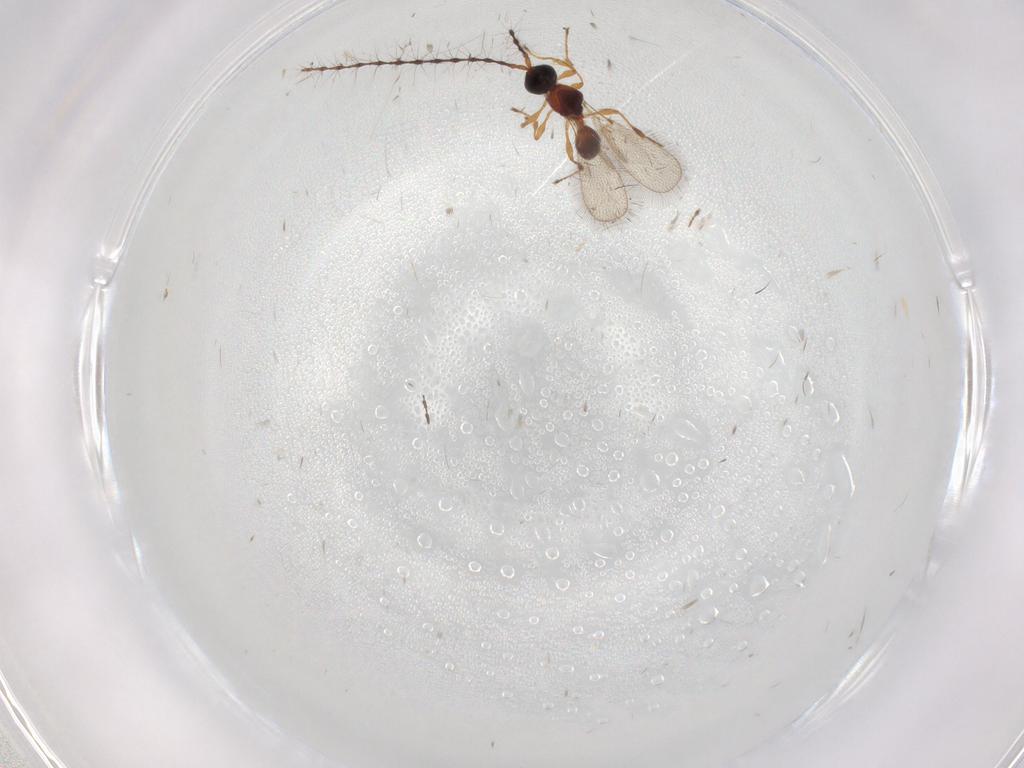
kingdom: Animalia
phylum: Arthropoda
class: Insecta
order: Hymenoptera
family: Diapriidae
